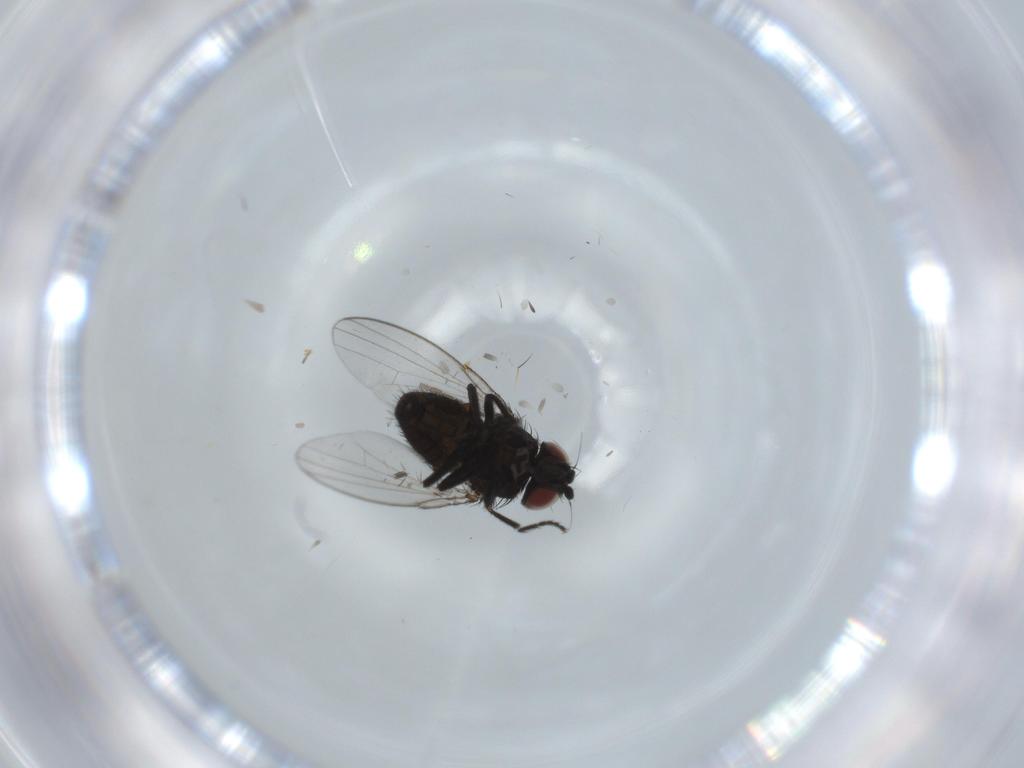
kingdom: Animalia
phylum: Arthropoda
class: Insecta
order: Diptera
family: Milichiidae
